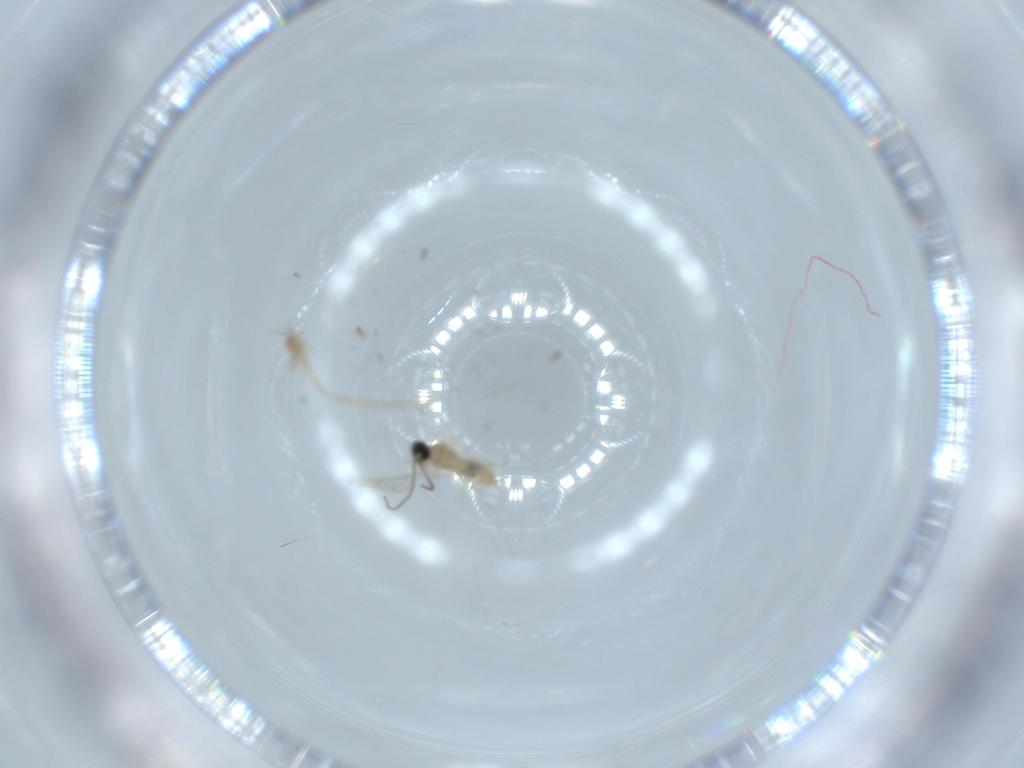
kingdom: Animalia
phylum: Arthropoda
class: Insecta
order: Diptera
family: Cecidomyiidae
